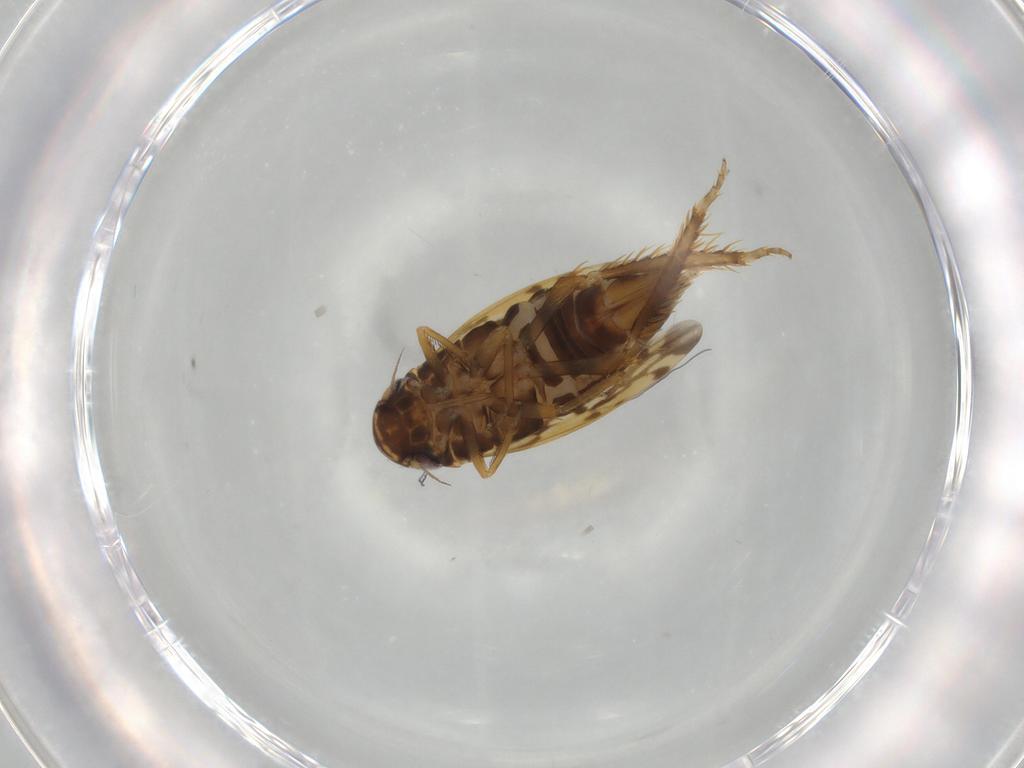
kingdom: Animalia
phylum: Arthropoda
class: Insecta
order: Hemiptera
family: Cicadellidae
